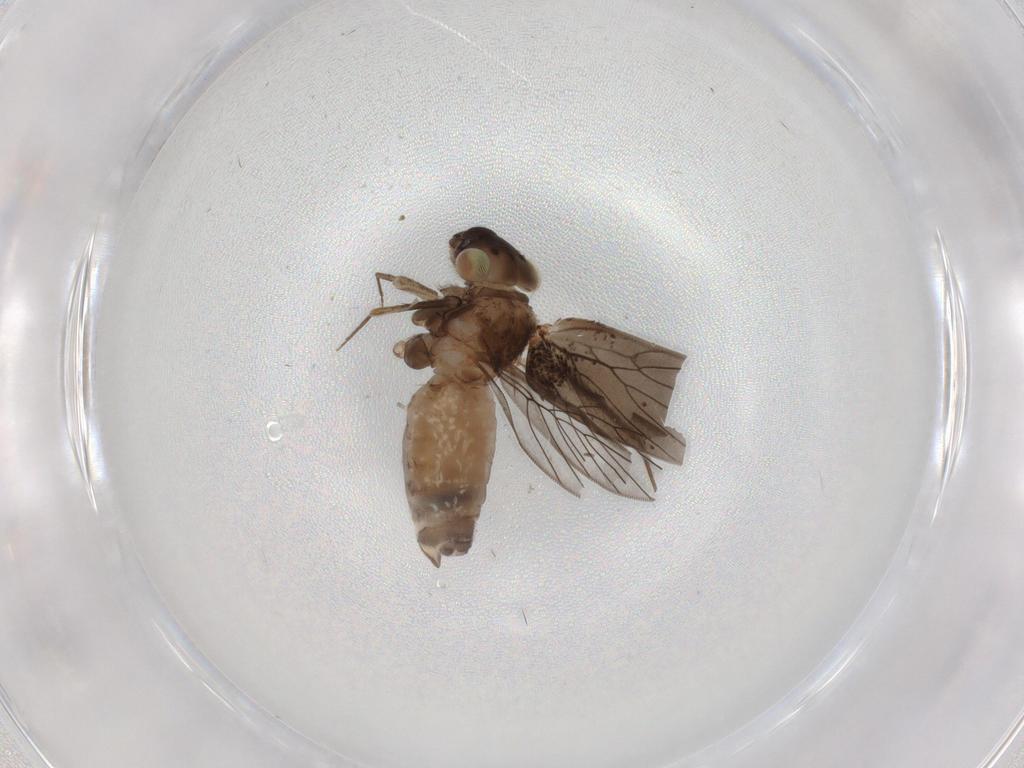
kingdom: Animalia
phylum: Arthropoda
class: Insecta
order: Psocodea
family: Lepidopsocidae
